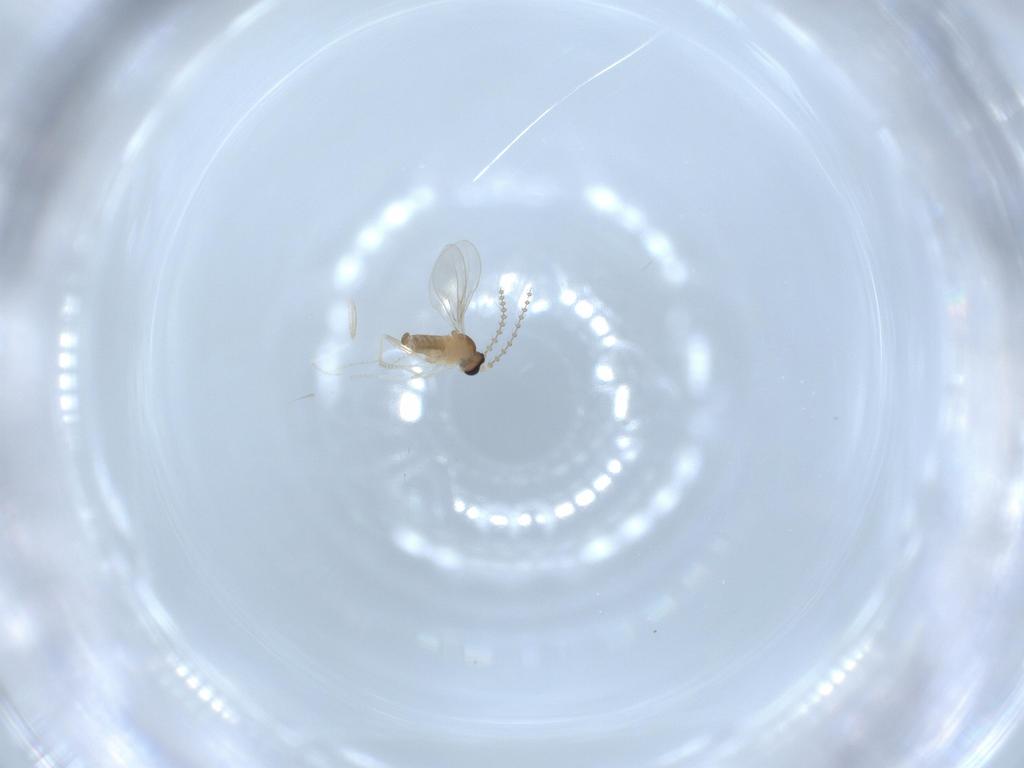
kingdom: Animalia
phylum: Arthropoda
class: Insecta
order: Diptera
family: Cecidomyiidae
